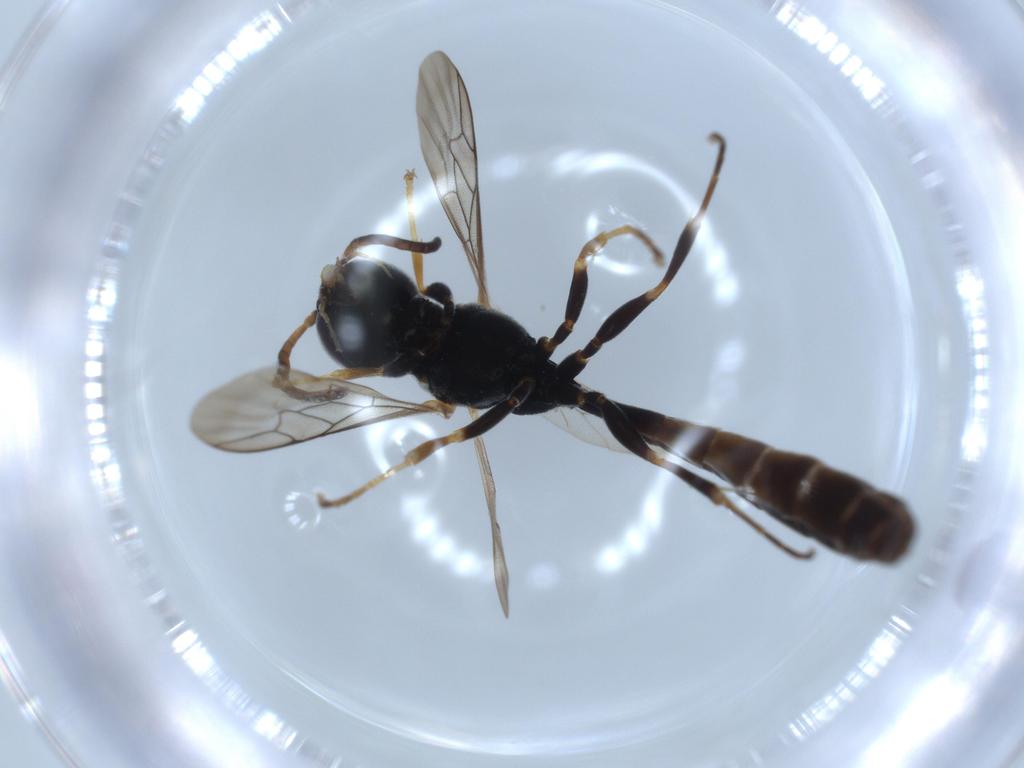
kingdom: Animalia
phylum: Arthropoda
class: Insecta
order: Hymenoptera
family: Crabronidae
